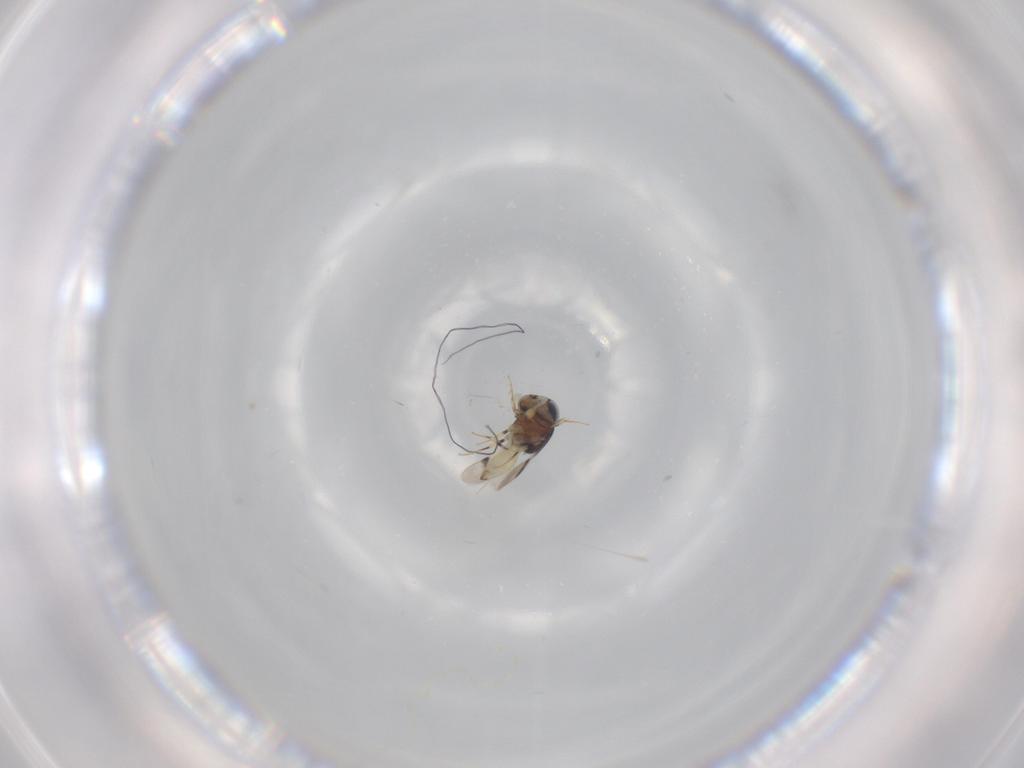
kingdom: Animalia
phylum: Arthropoda
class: Insecta
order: Hymenoptera
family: Scelionidae
